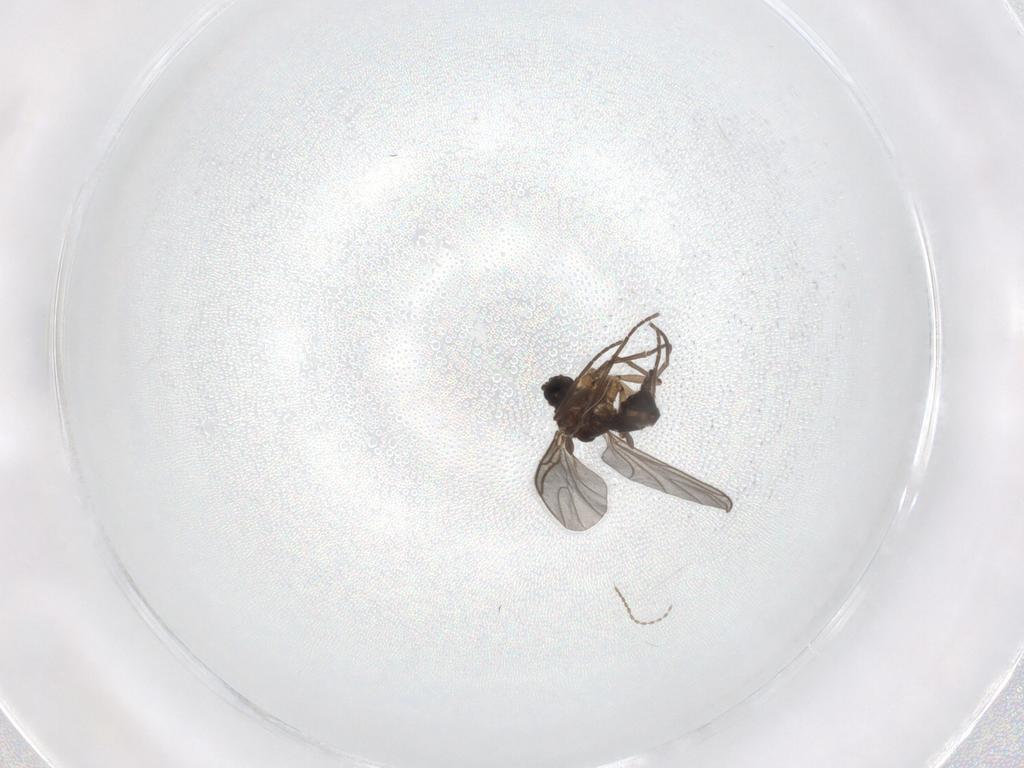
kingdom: Animalia
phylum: Arthropoda
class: Insecta
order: Diptera
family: Sciaridae
